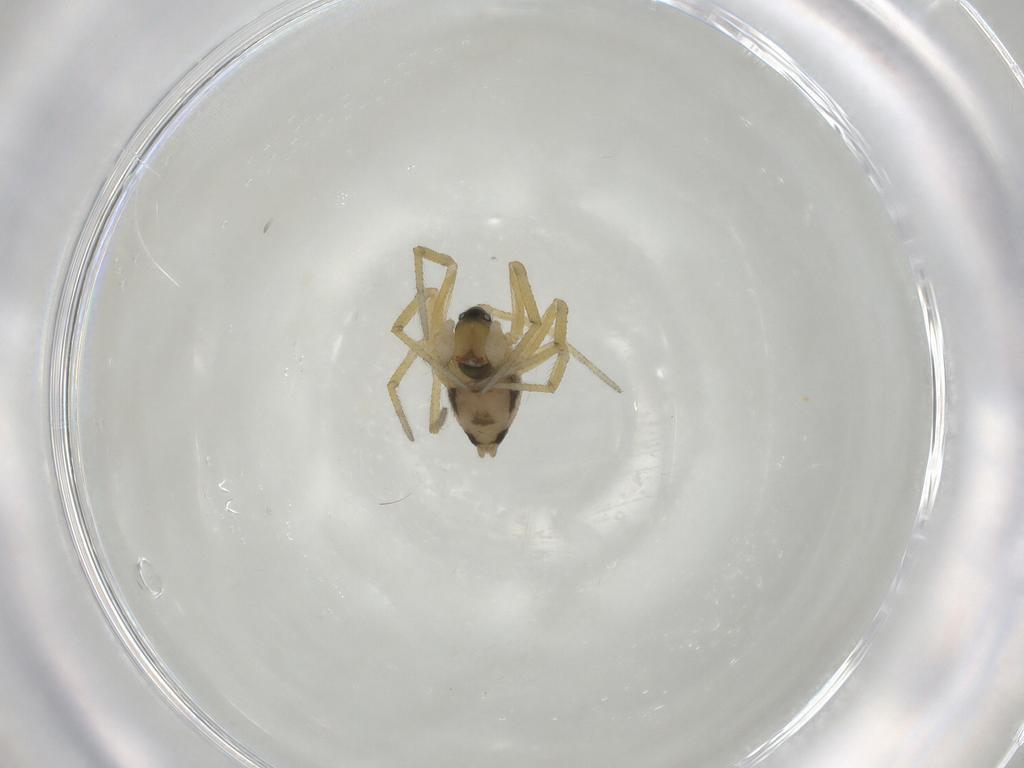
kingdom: Animalia
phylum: Arthropoda
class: Arachnida
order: Araneae
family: Linyphiidae
